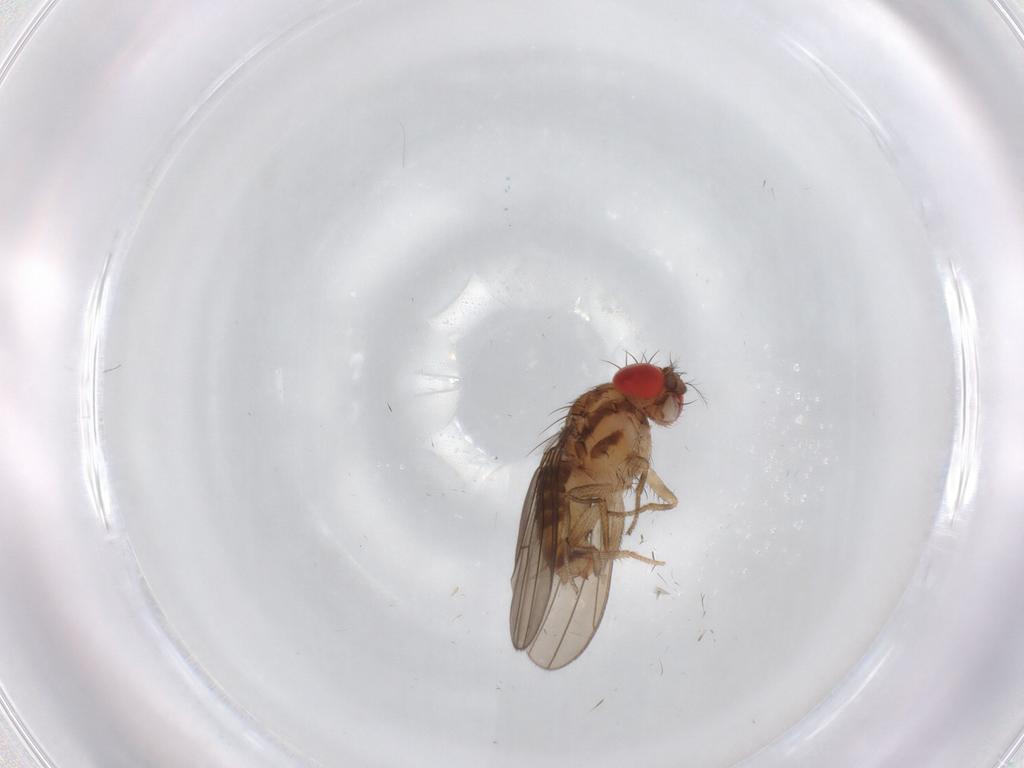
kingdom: Animalia
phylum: Arthropoda
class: Insecta
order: Diptera
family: Drosophilidae
